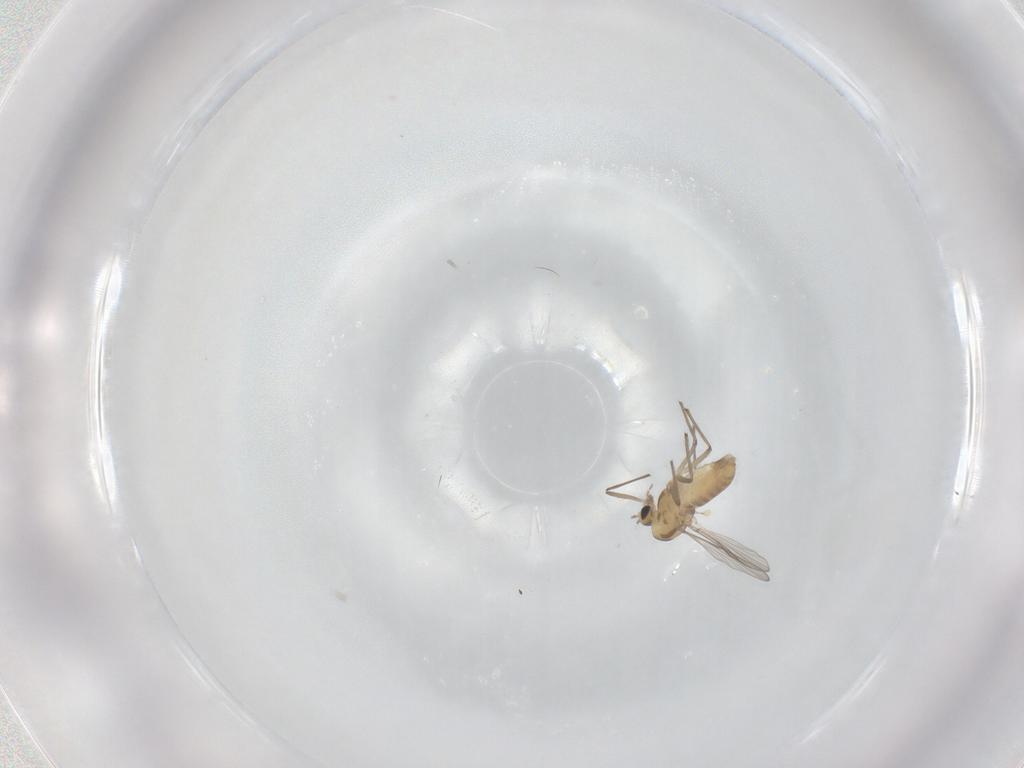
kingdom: Animalia
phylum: Arthropoda
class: Insecta
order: Diptera
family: Chironomidae
